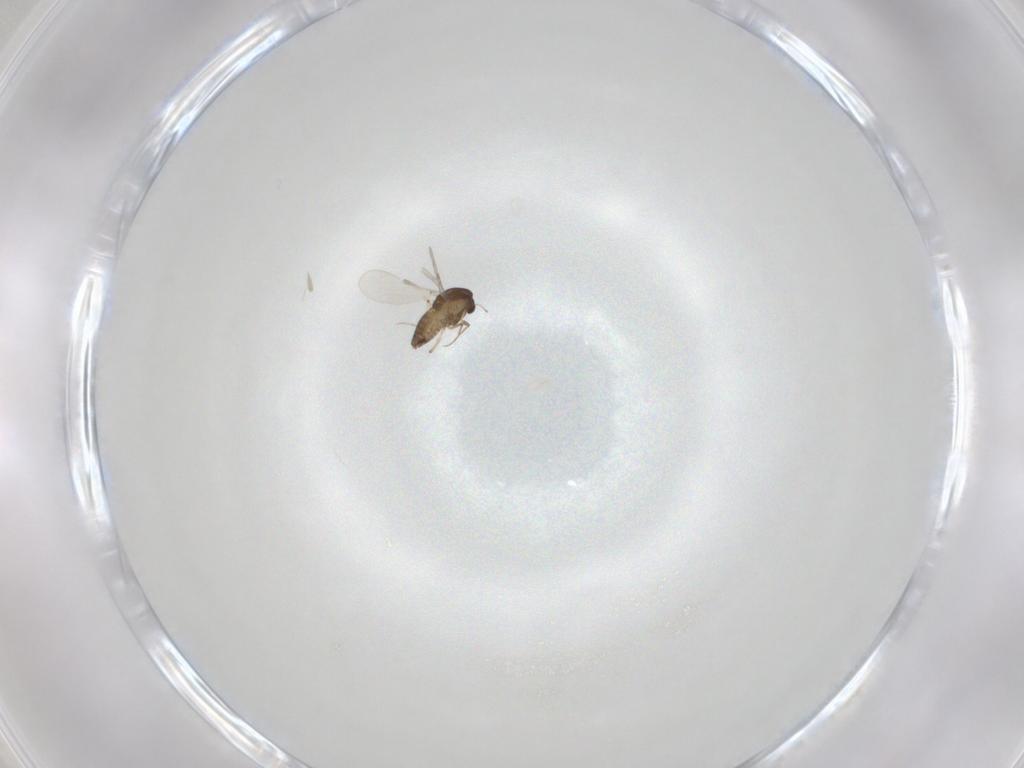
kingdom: Animalia
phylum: Arthropoda
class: Insecta
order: Diptera
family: Chironomidae
